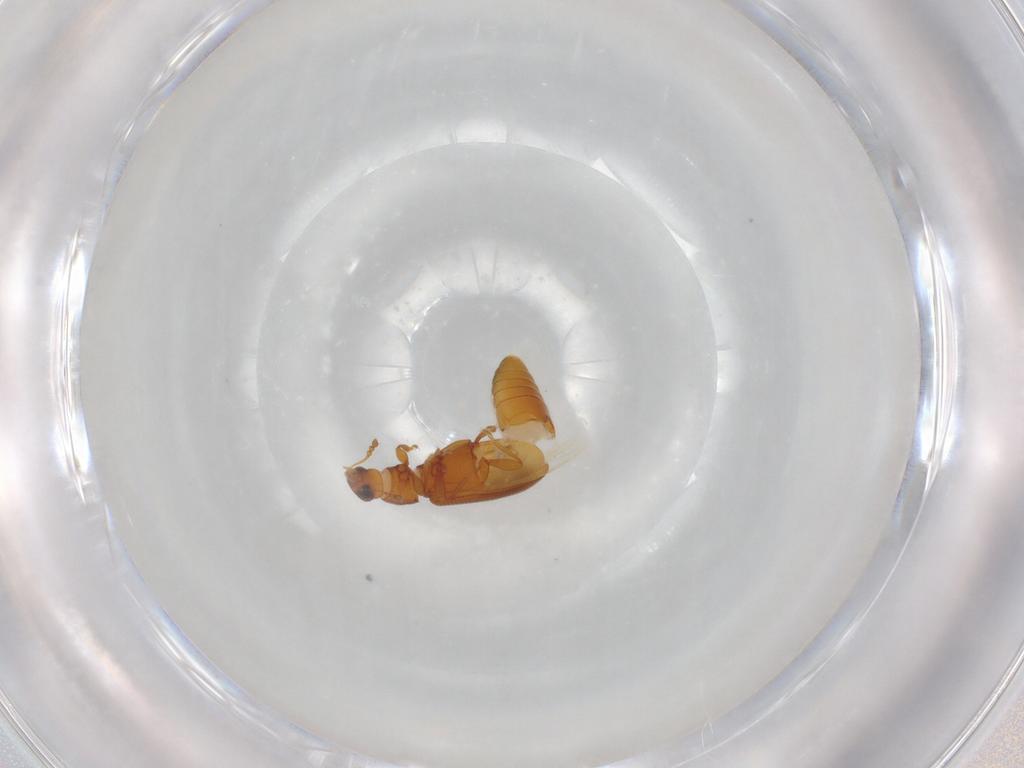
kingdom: Animalia
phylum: Arthropoda
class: Insecta
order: Coleoptera
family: Latridiidae
